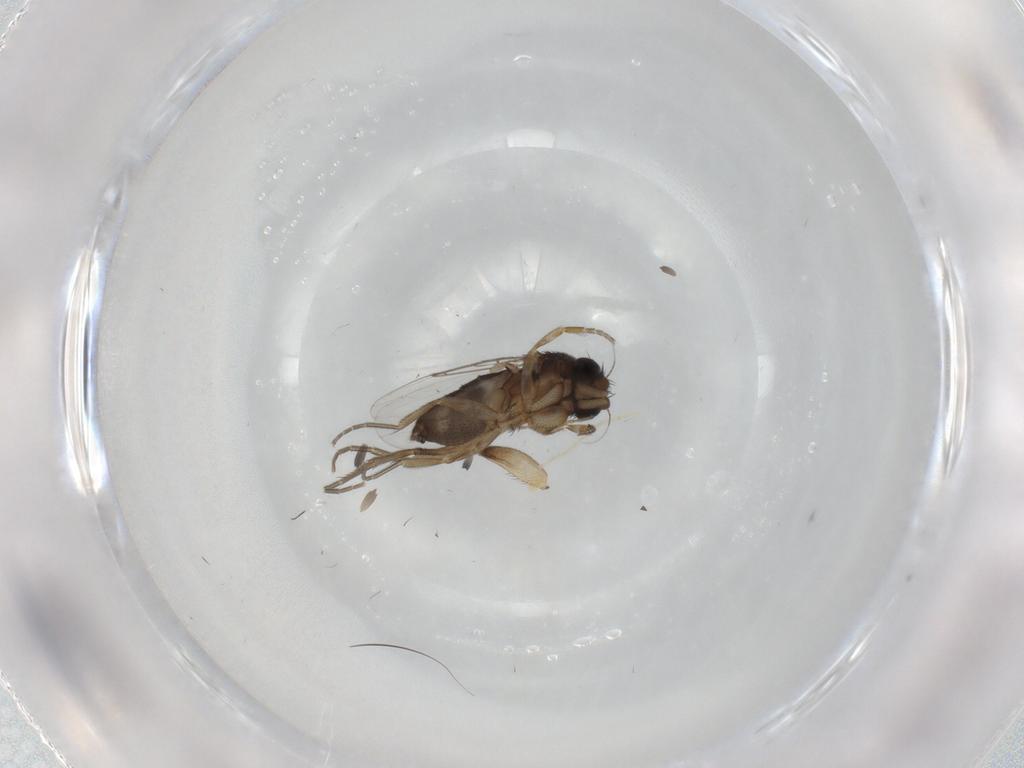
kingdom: Animalia
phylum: Arthropoda
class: Insecta
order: Diptera
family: Phoridae
